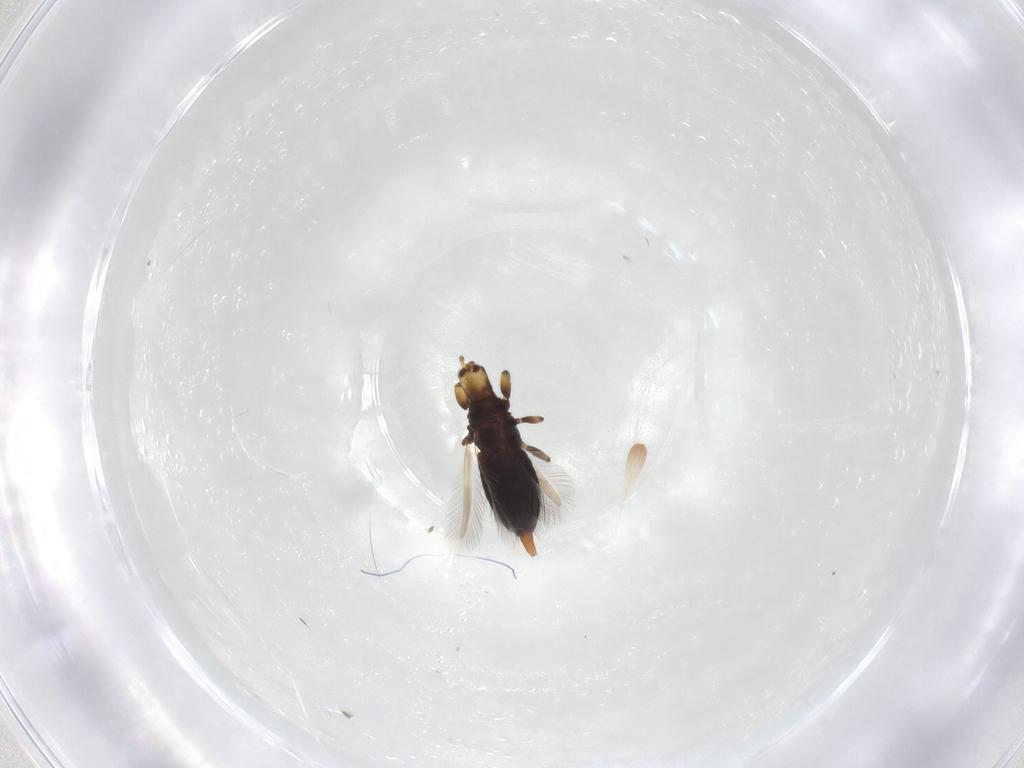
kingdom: Animalia
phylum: Arthropoda
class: Insecta
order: Thysanoptera
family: Phlaeothripidae
